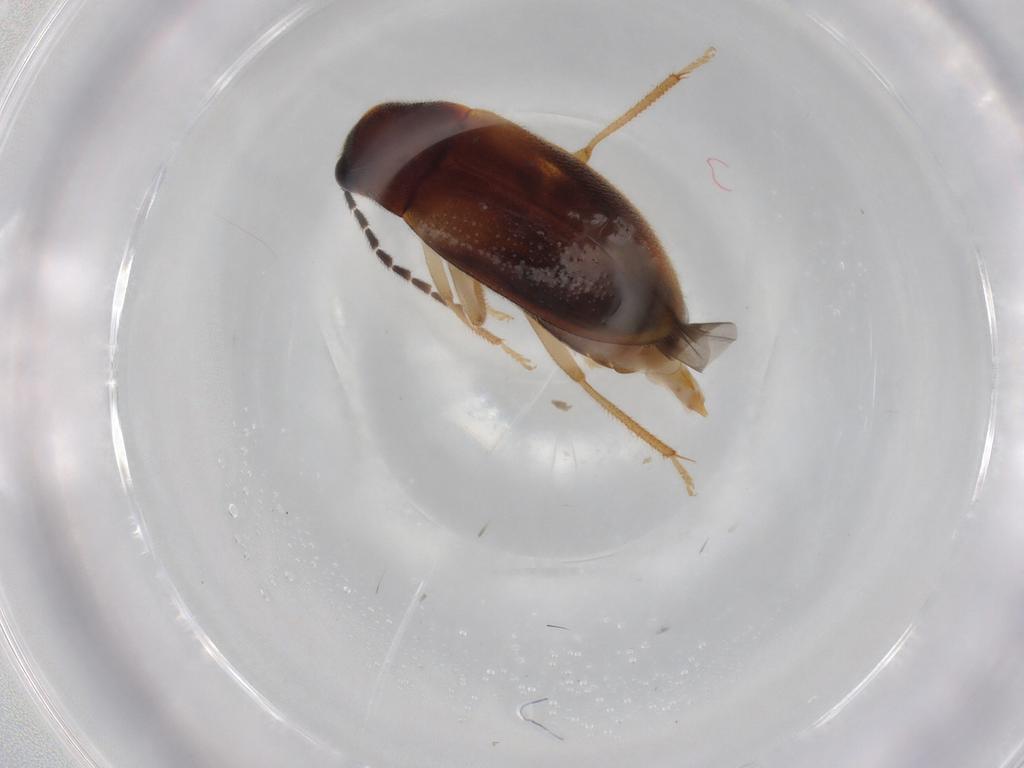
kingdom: Animalia
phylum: Arthropoda
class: Insecta
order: Coleoptera
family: Ptilodactylidae
